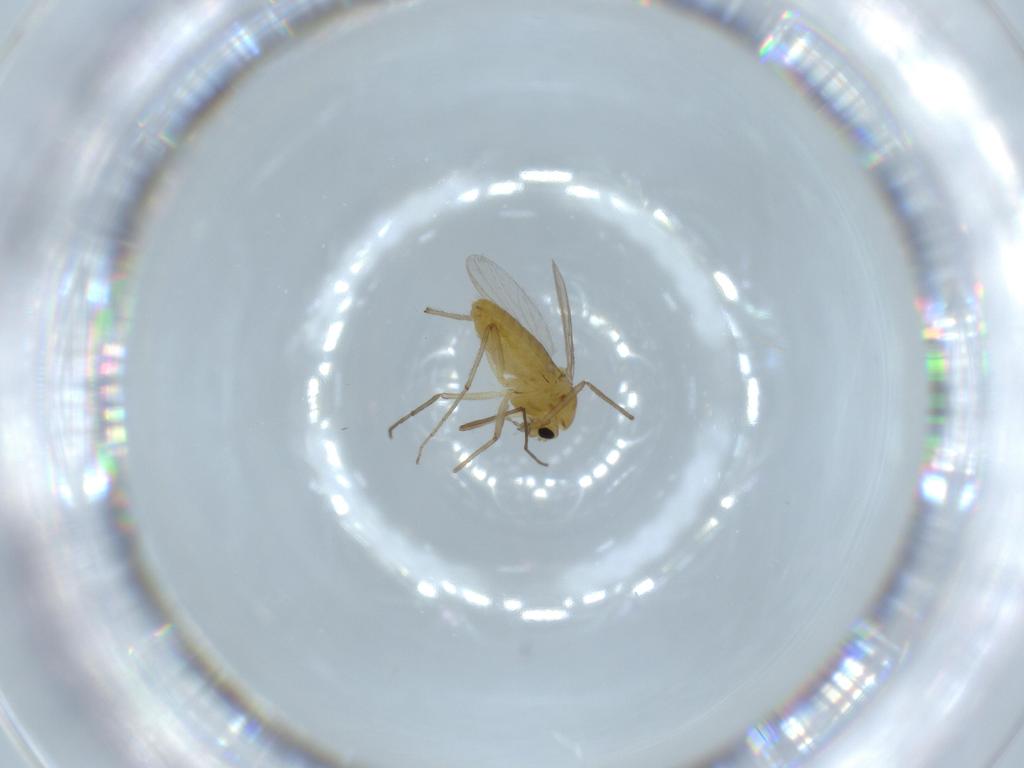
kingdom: Animalia
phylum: Arthropoda
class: Insecta
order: Diptera
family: Chironomidae
